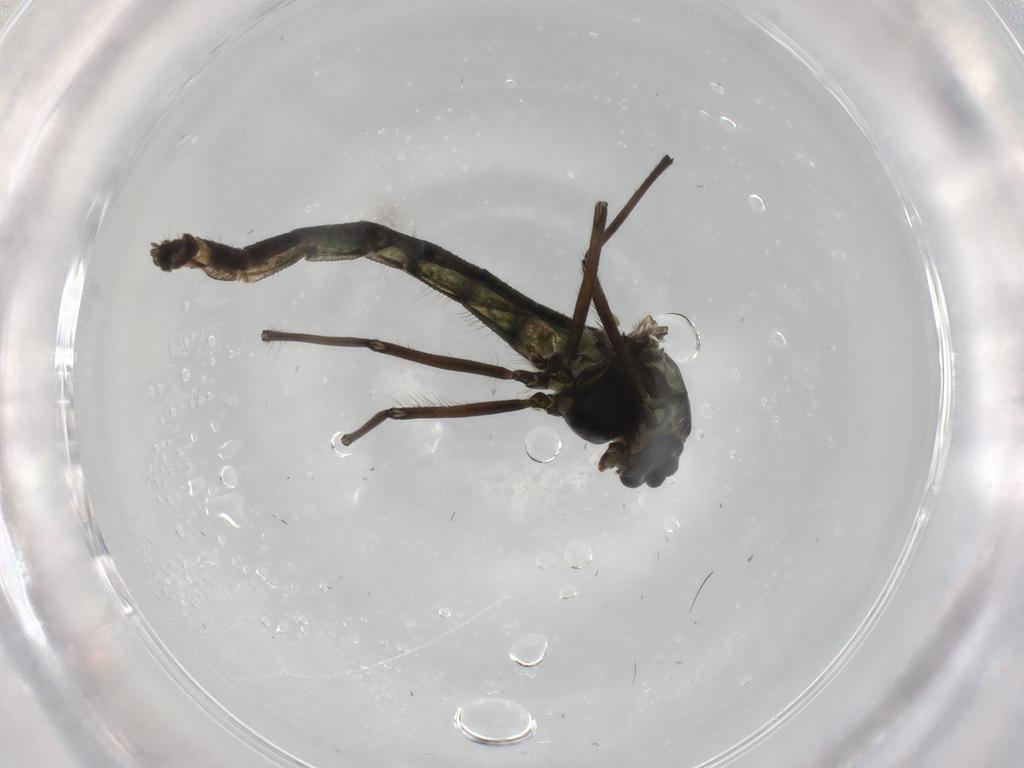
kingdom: Animalia
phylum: Arthropoda
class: Insecta
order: Diptera
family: Chironomidae
